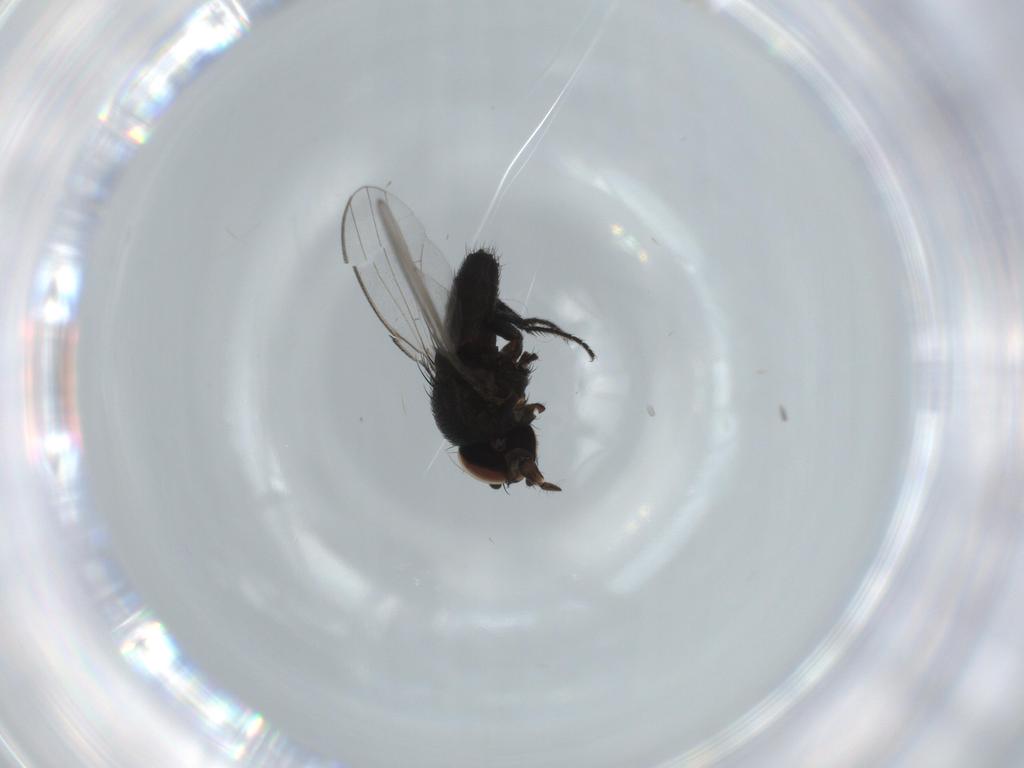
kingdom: Animalia
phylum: Arthropoda
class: Insecta
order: Diptera
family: Milichiidae
